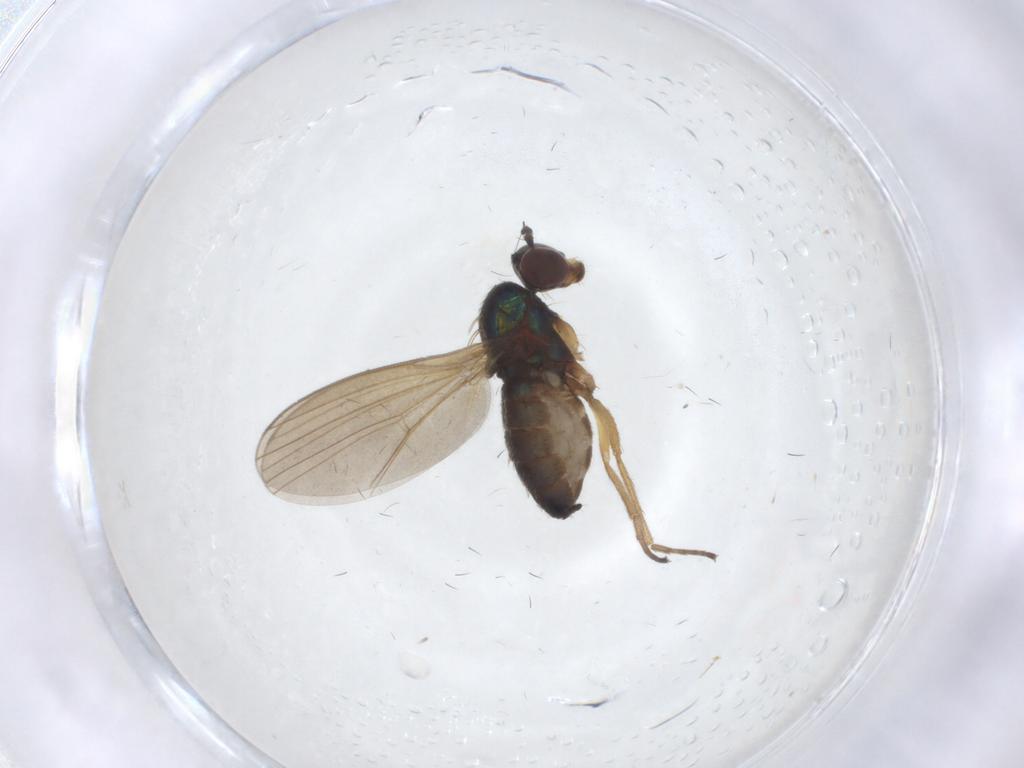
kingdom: Animalia
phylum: Arthropoda
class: Insecta
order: Diptera
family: Dolichopodidae
